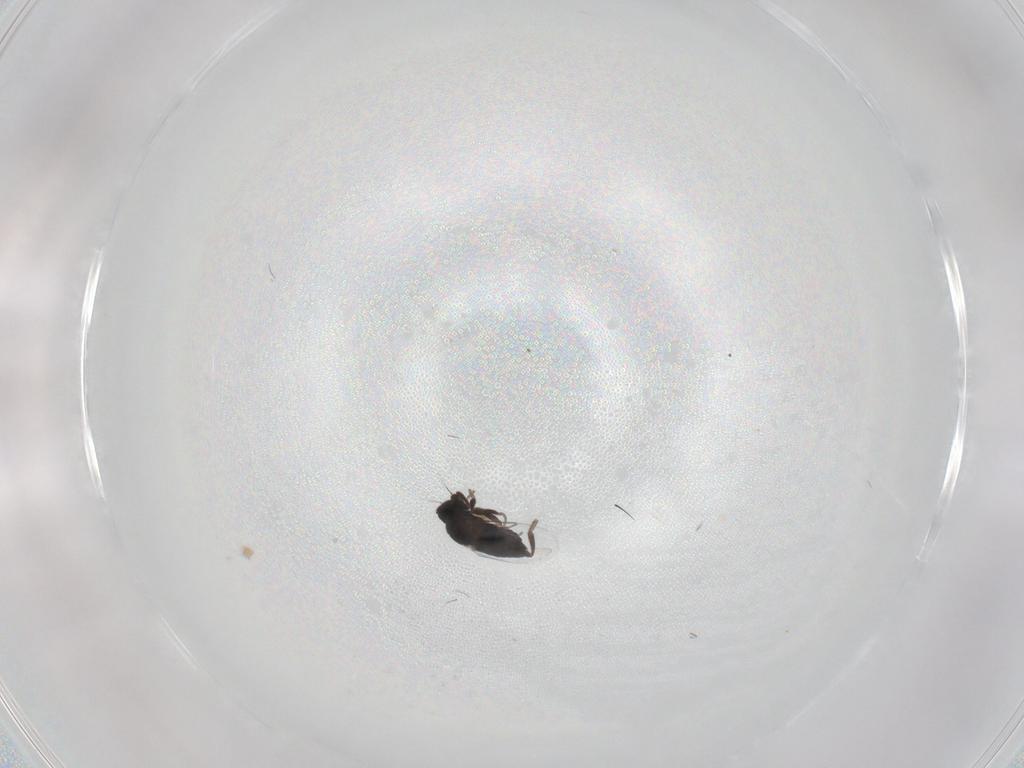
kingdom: Animalia
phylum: Arthropoda
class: Insecta
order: Diptera
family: Phoridae
